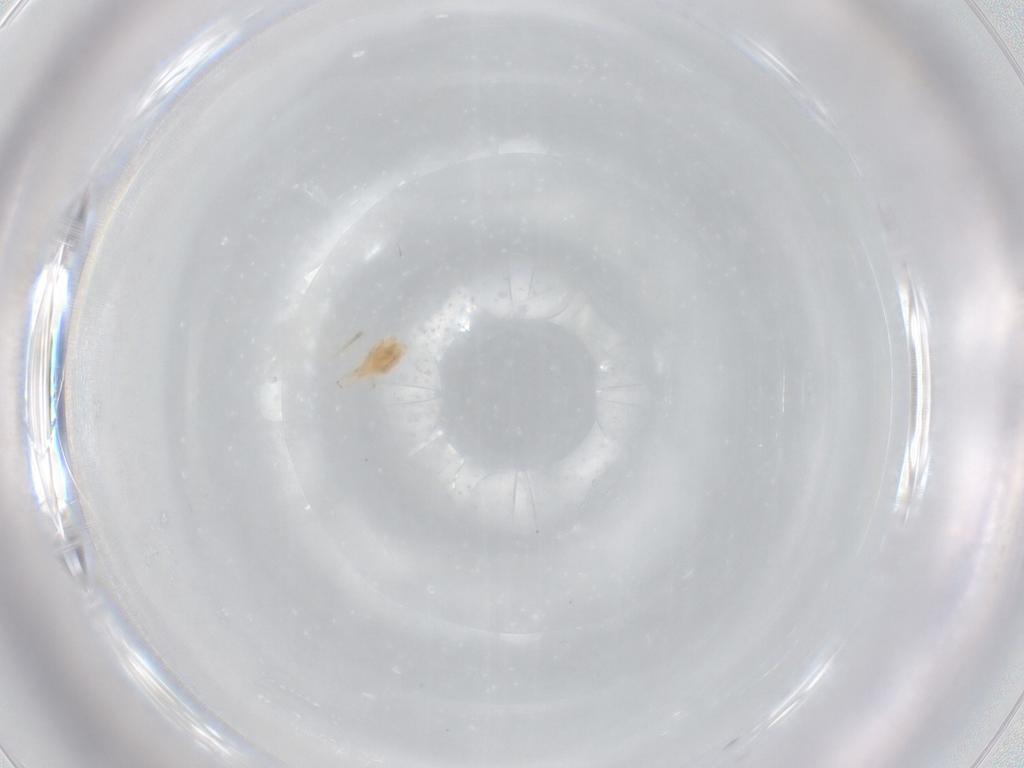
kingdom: Animalia
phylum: Arthropoda
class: Arachnida
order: Trombidiformes
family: Cunaxidae
